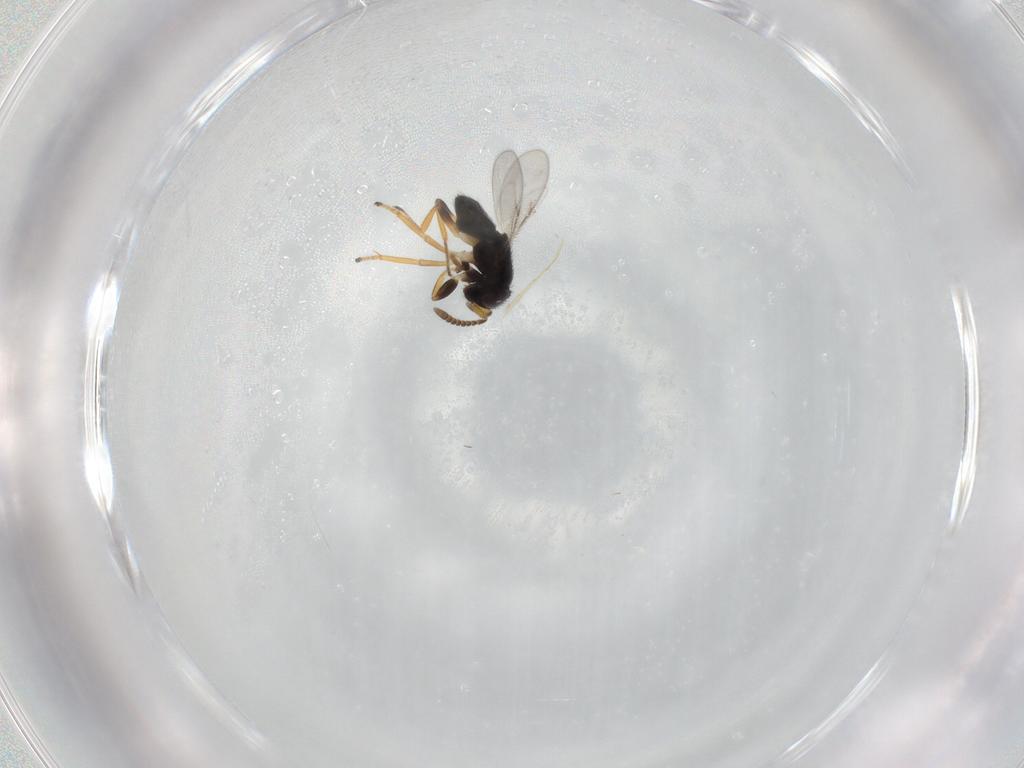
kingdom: Animalia
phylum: Arthropoda
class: Insecta
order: Hymenoptera
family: Encyrtidae
